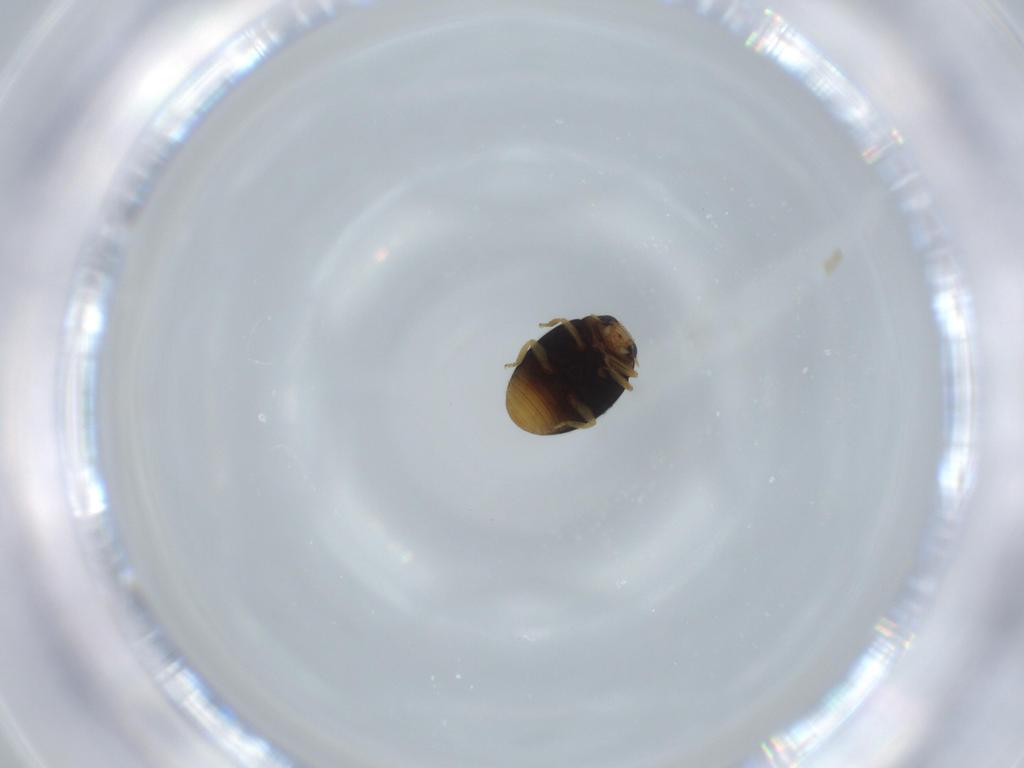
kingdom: Animalia
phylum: Arthropoda
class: Insecta
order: Coleoptera
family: Coccinellidae
